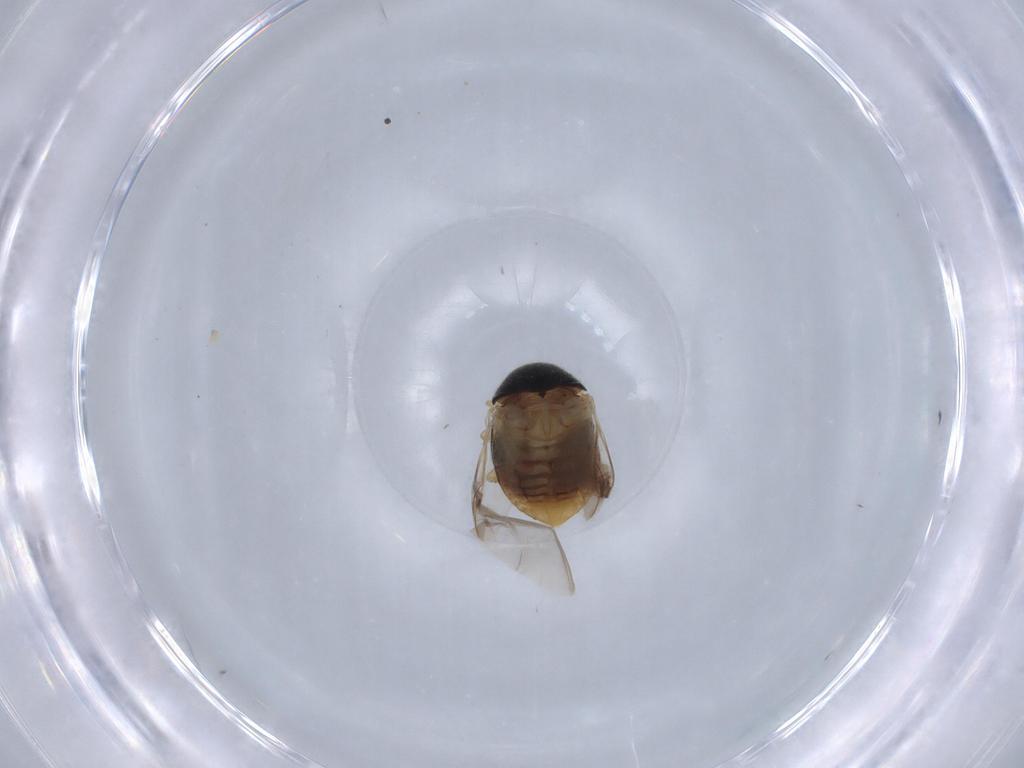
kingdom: Animalia
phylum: Arthropoda
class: Insecta
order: Coleoptera
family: Coccinellidae
